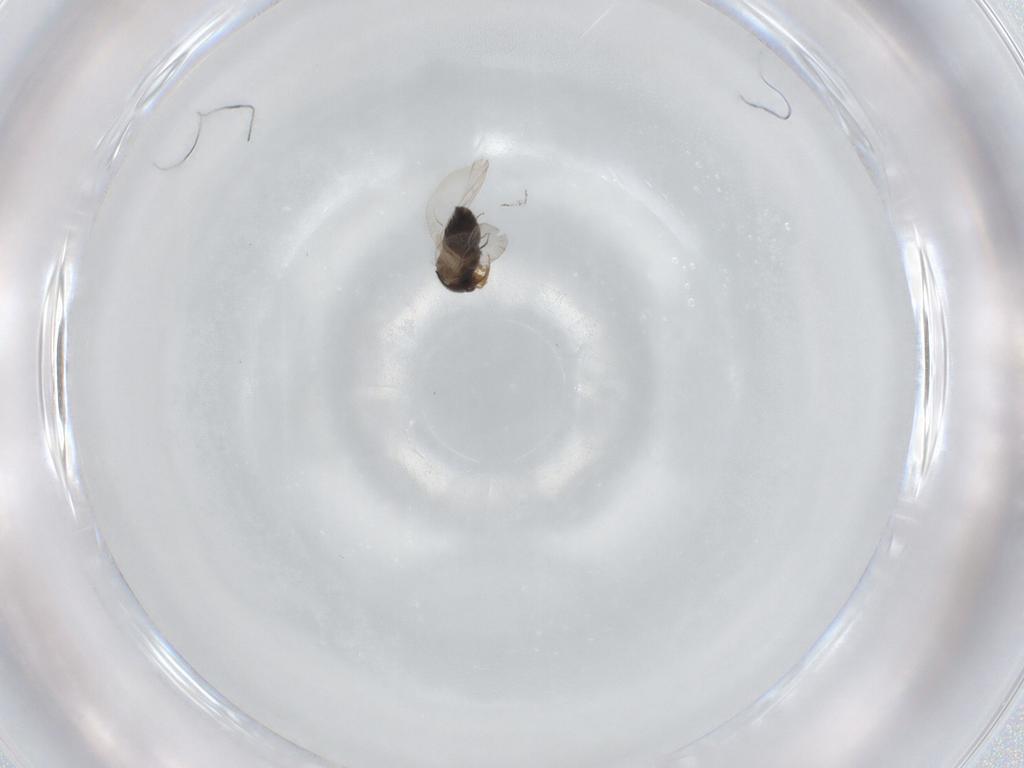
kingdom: Animalia
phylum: Arthropoda
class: Insecta
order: Coleoptera
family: Staphylinidae
